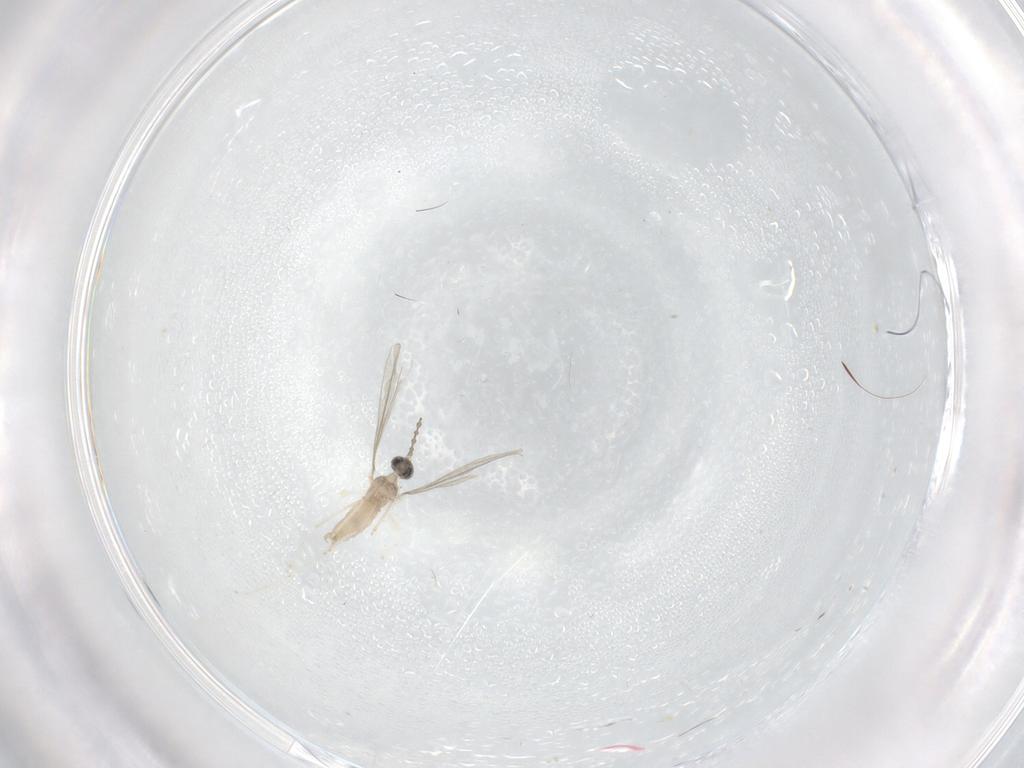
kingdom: Animalia
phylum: Arthropoda
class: Insecta
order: Diptera
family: Cecidomyiidae
